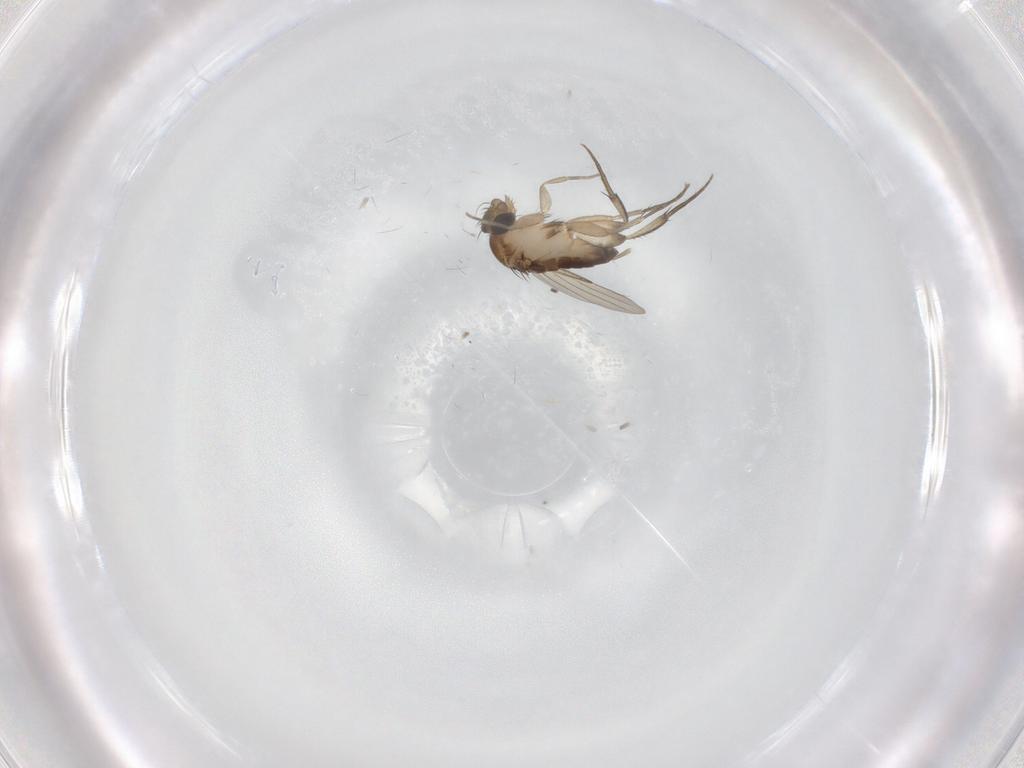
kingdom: Animalia
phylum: Arthropoda
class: Insecta
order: Diptera
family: Phoridae
